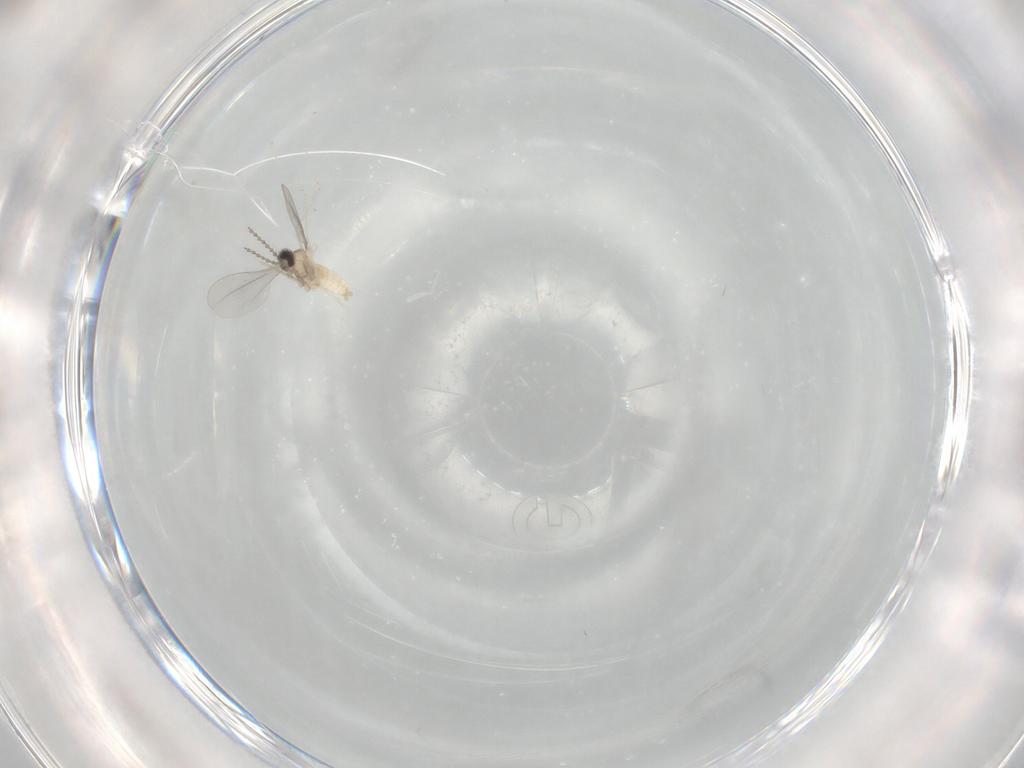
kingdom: Animalia
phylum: Arthropoda
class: Insecta
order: Diptera
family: Cecidomyiidae
